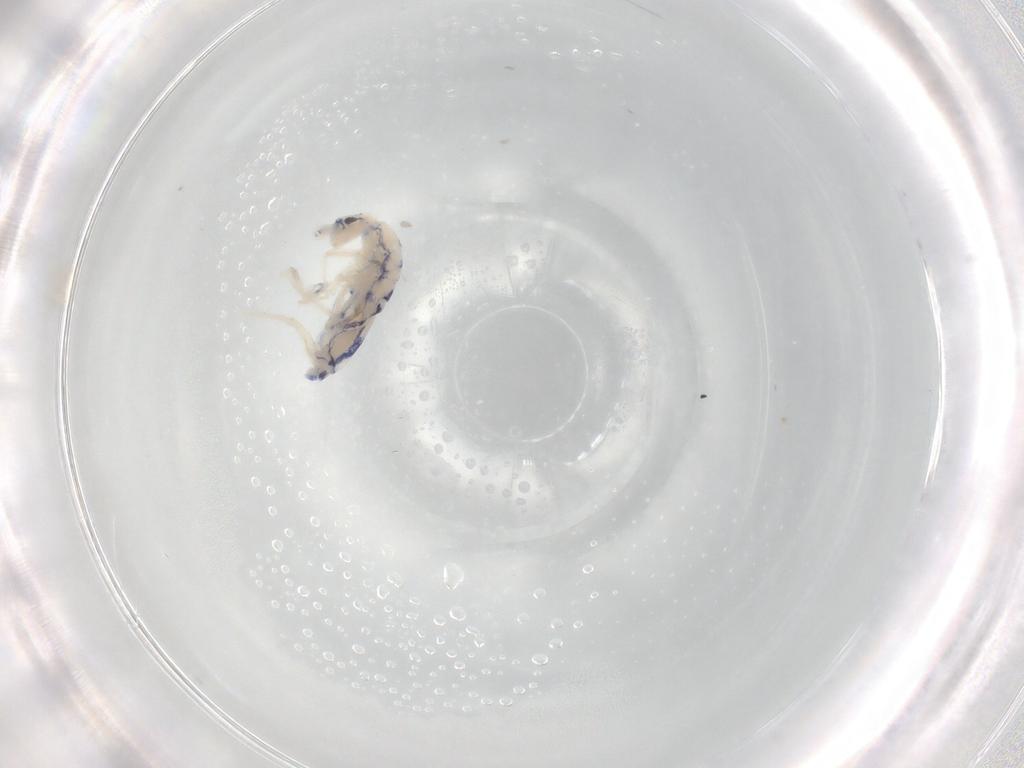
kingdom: Animalia
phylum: Arthropoda
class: Collembola
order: Entomobryomorpha
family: Entomobryidae
